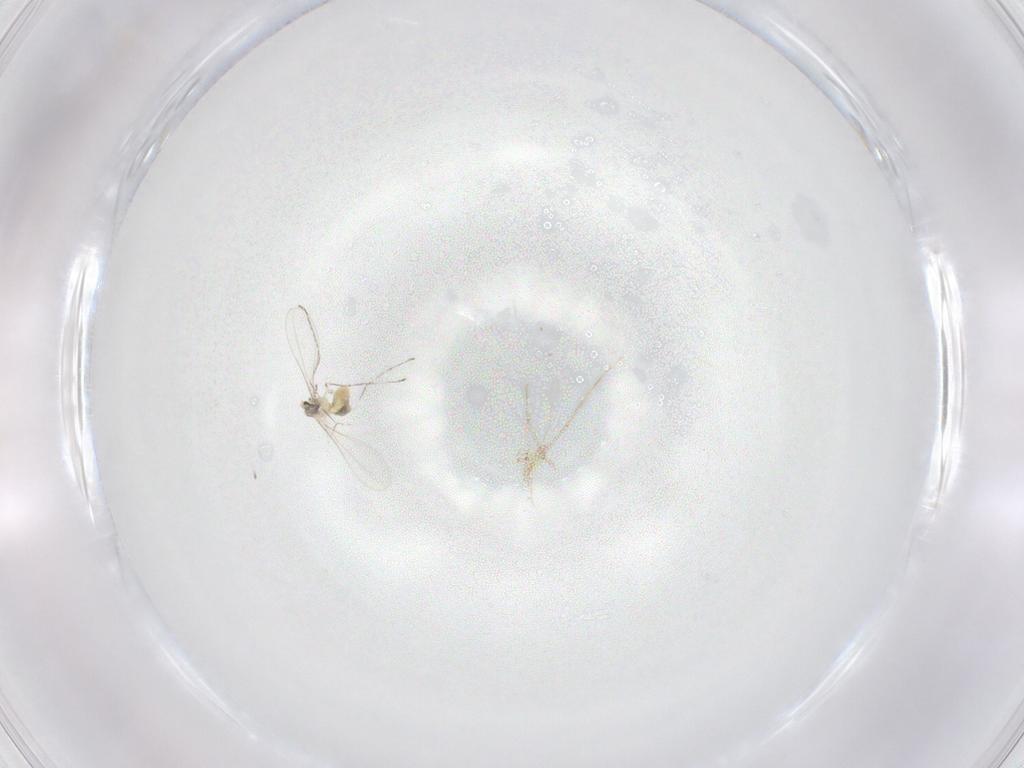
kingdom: Animalia
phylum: Arthropoda
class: Insecta
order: Diptera
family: Cecidomyiidae
